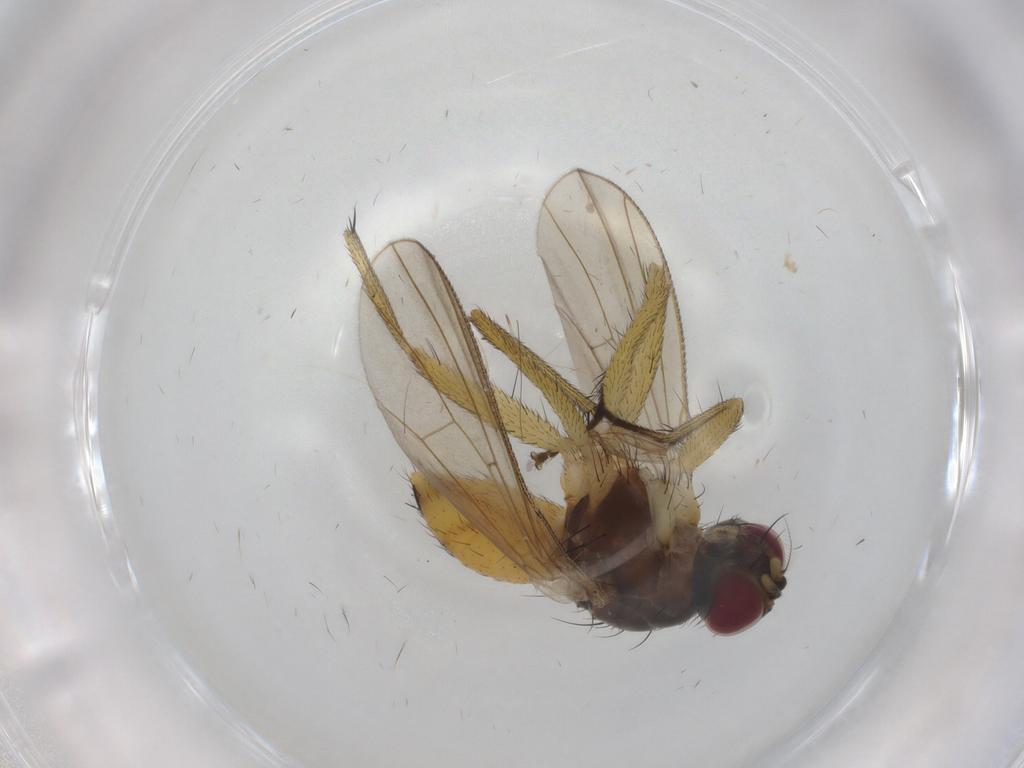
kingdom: Animalia
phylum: Arthropoda
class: Insecta
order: Diptera
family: Muscidae
